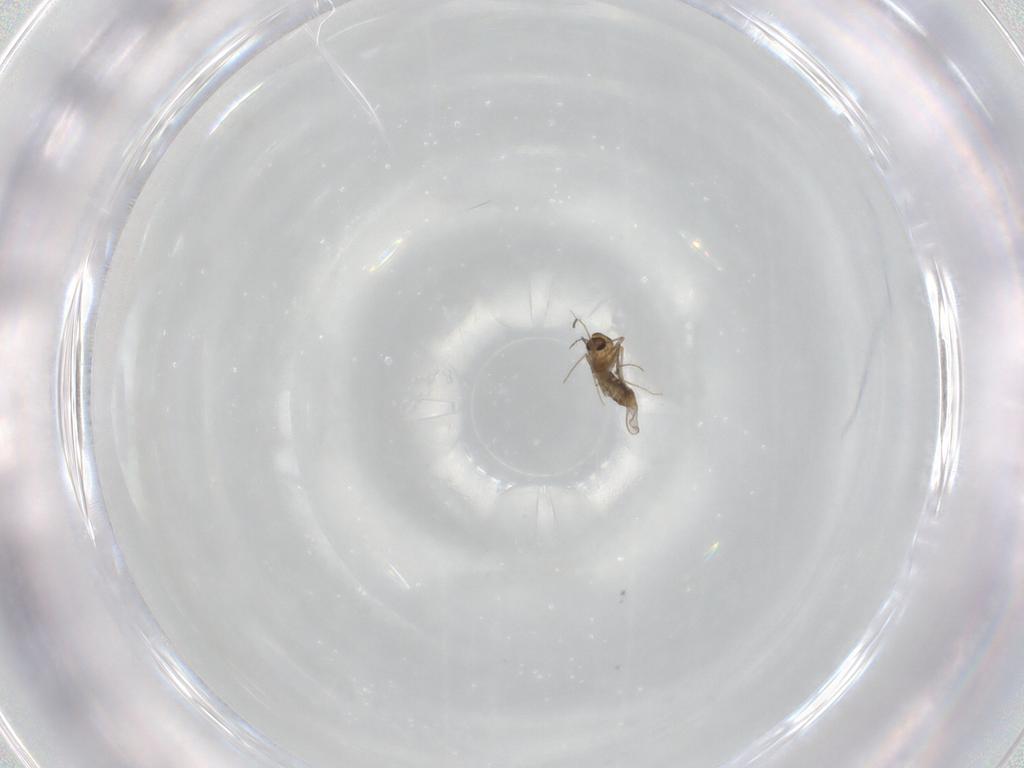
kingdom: Animalia
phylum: Arthropoda
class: Insecta
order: Diptera
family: Chironomidae
